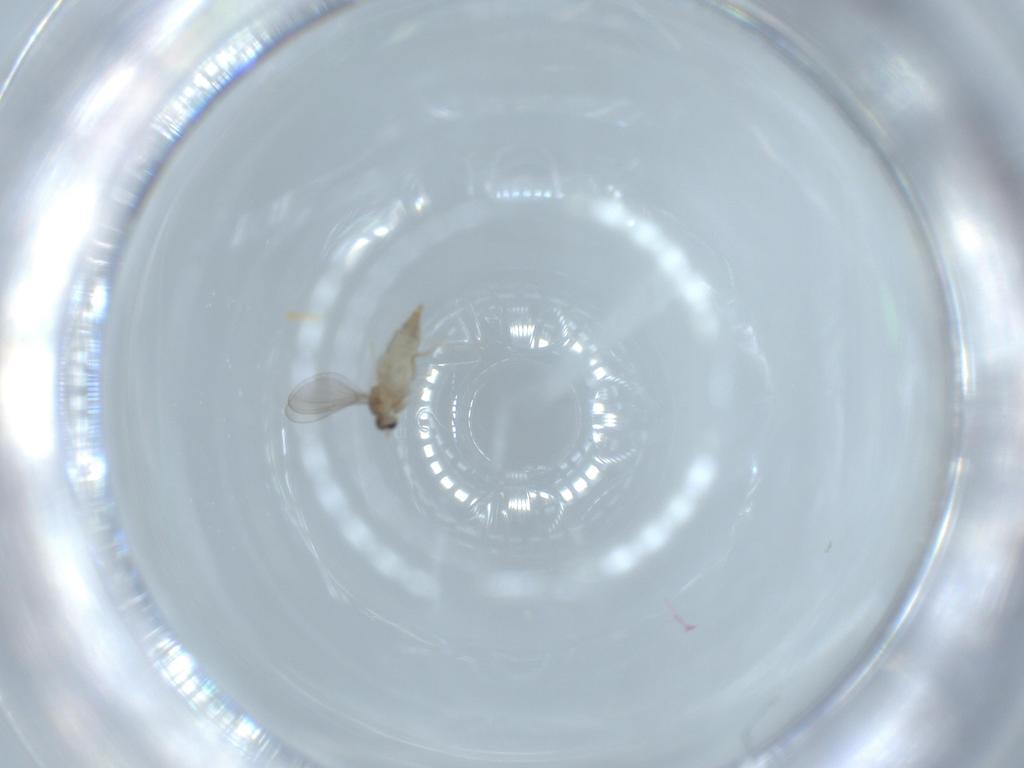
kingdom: Animalia
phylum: Arthropoda
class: Insecta
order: Diptera
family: Cecidomyiidae
